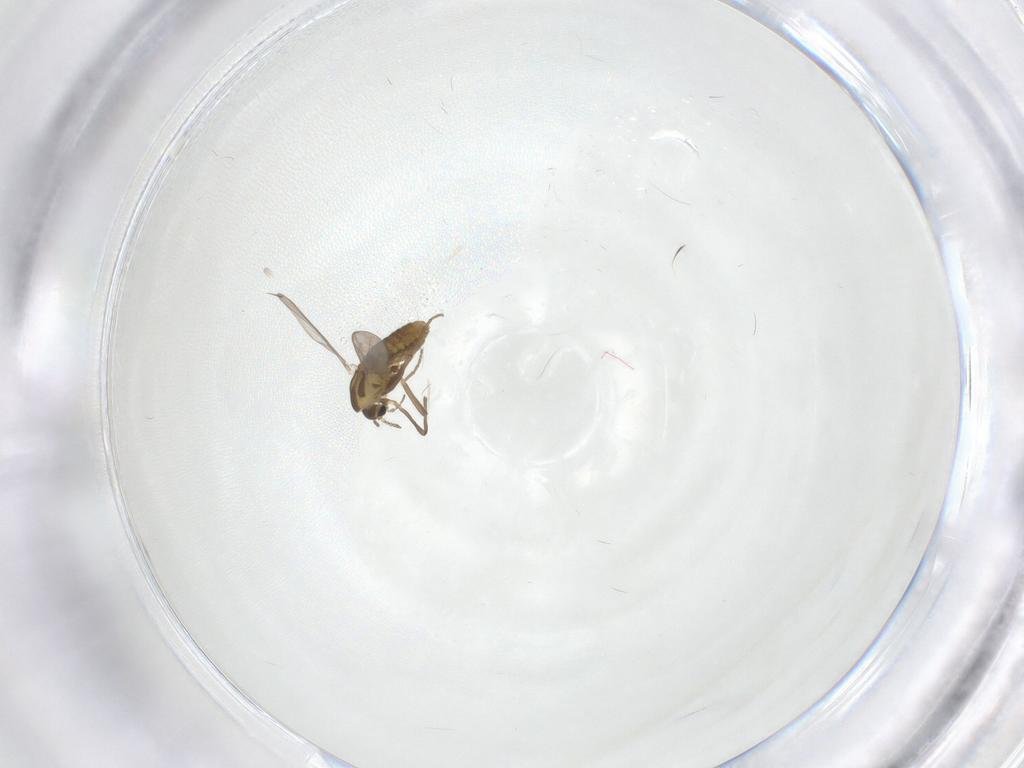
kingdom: Animalia
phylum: Arthropoda
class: Insecta
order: Diptera
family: Chironomidae
